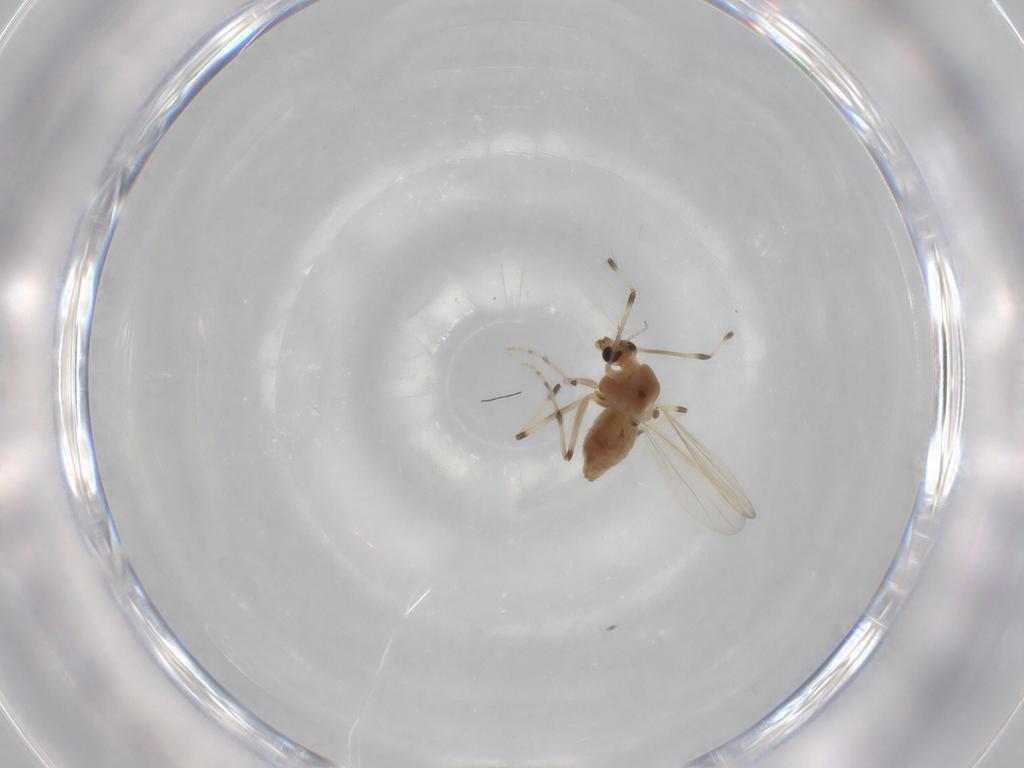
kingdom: Animalia
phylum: Arthropoda
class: Insecta
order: Diptera
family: Chironomidae
